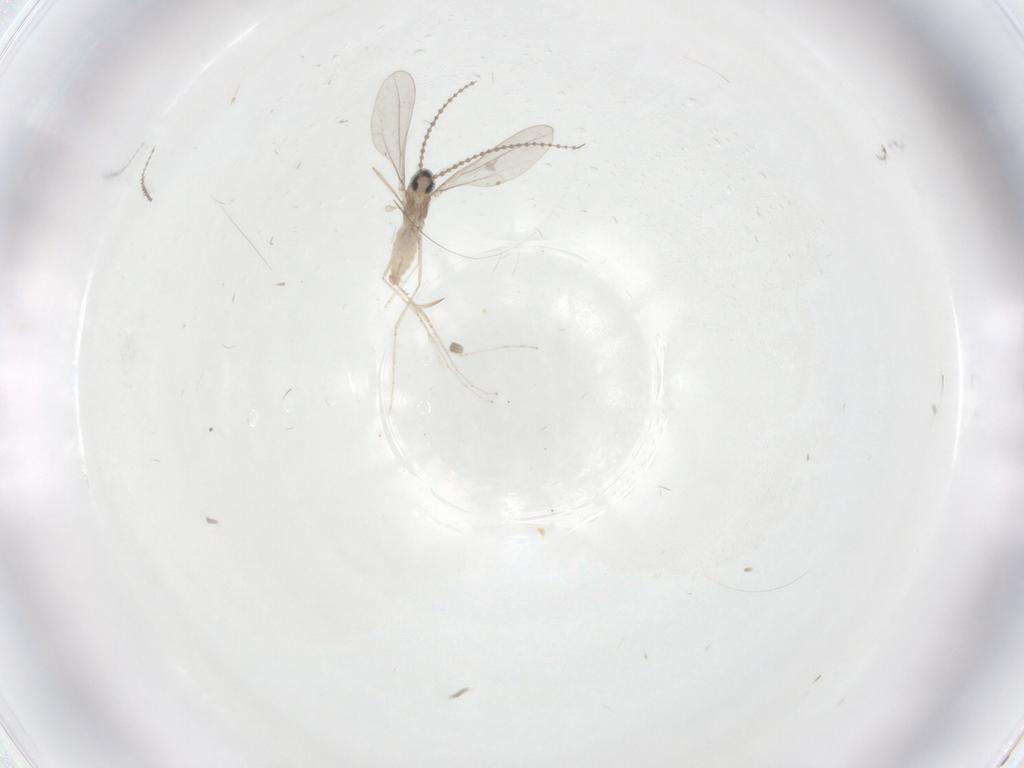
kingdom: Animalia
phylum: Arthropoda
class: Insecta
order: Diptera
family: Cecidomyiidae
